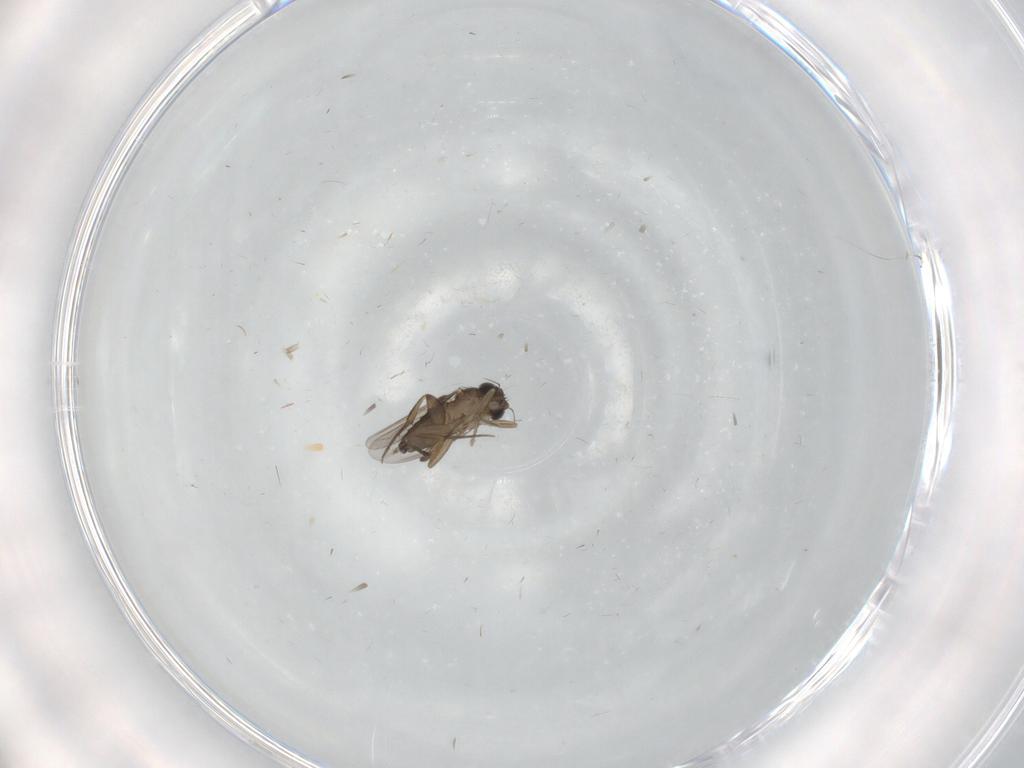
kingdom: Animalia
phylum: Arthropoda
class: Insecta
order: Diptera
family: Phoridae
